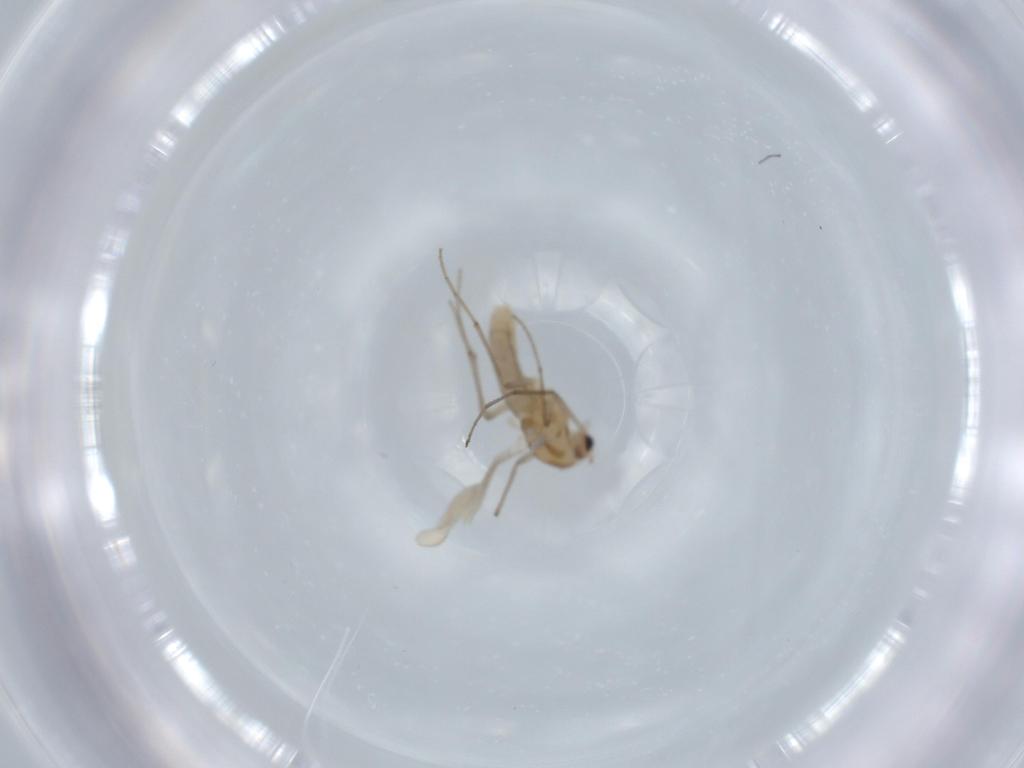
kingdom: Animalia
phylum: Arthropoda
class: Insecta
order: Diptera
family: Chironomidae
